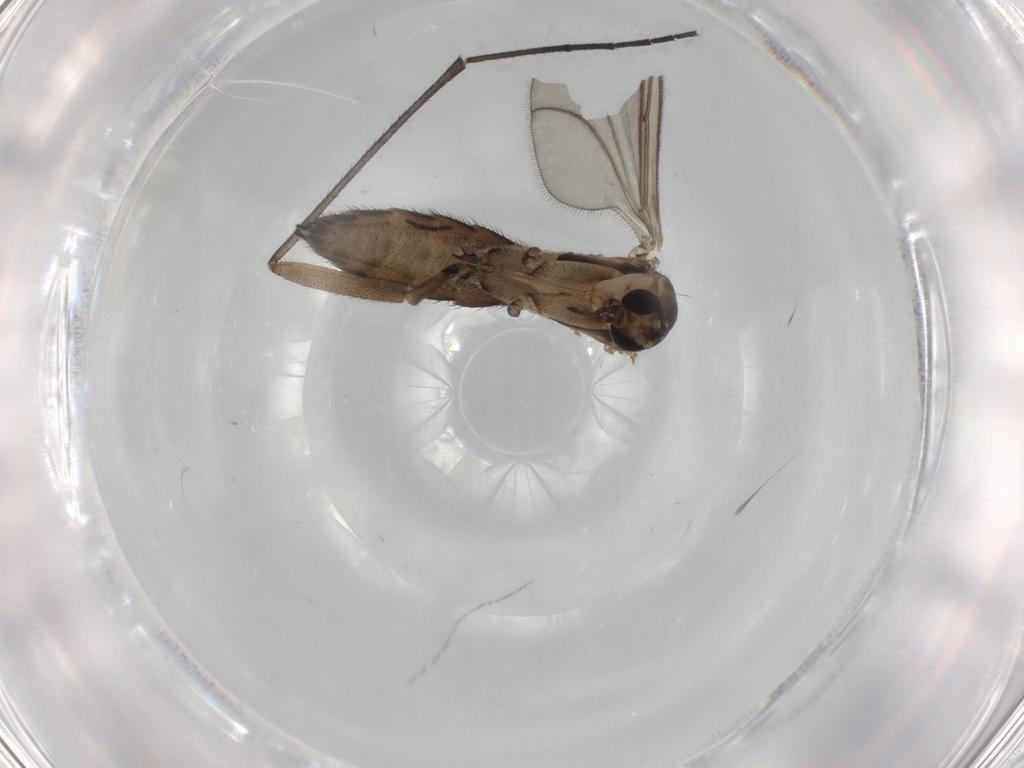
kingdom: Animalia
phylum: Arthropoda
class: Insecta
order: Diptera
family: Sciaridae
